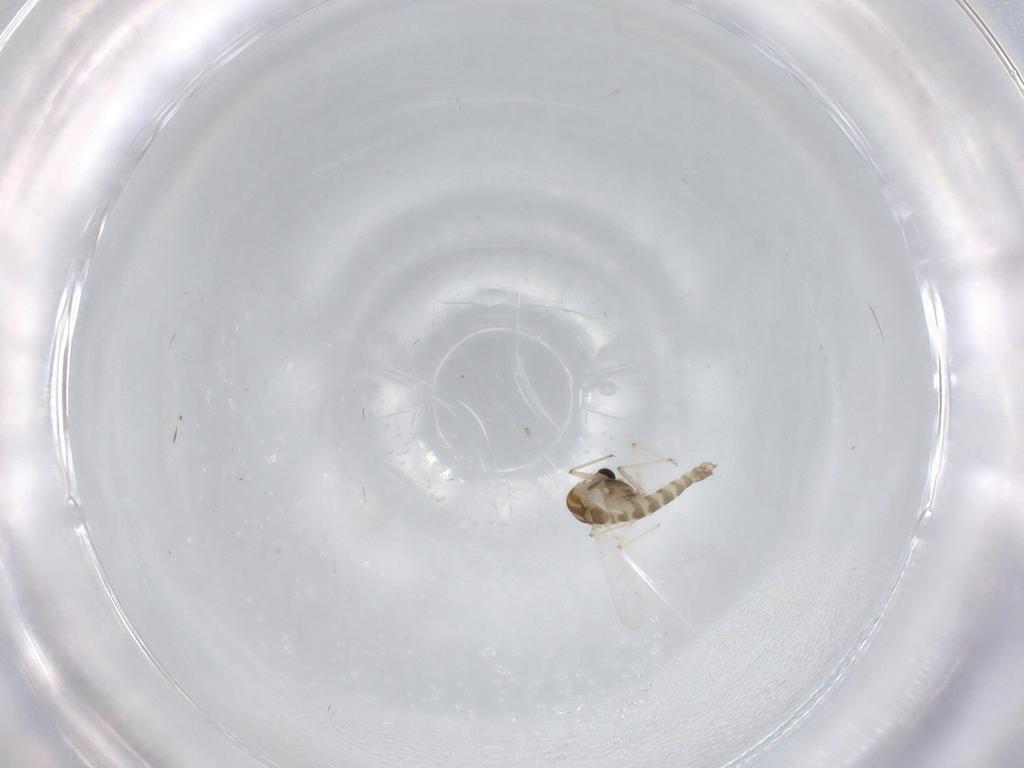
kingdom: Animalia
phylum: Arthropoda
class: Insecta
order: Diptera
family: Chironomidae
